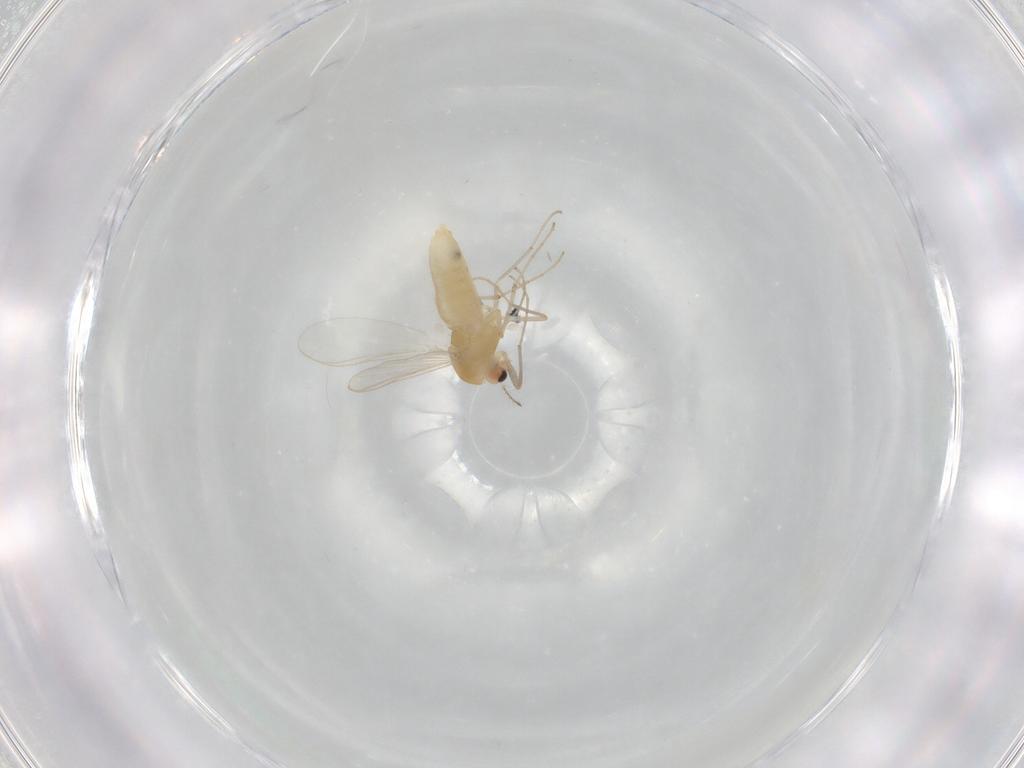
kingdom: Animalia
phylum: Arthropoda
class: Insecta
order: Diptera
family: Chironomidae
